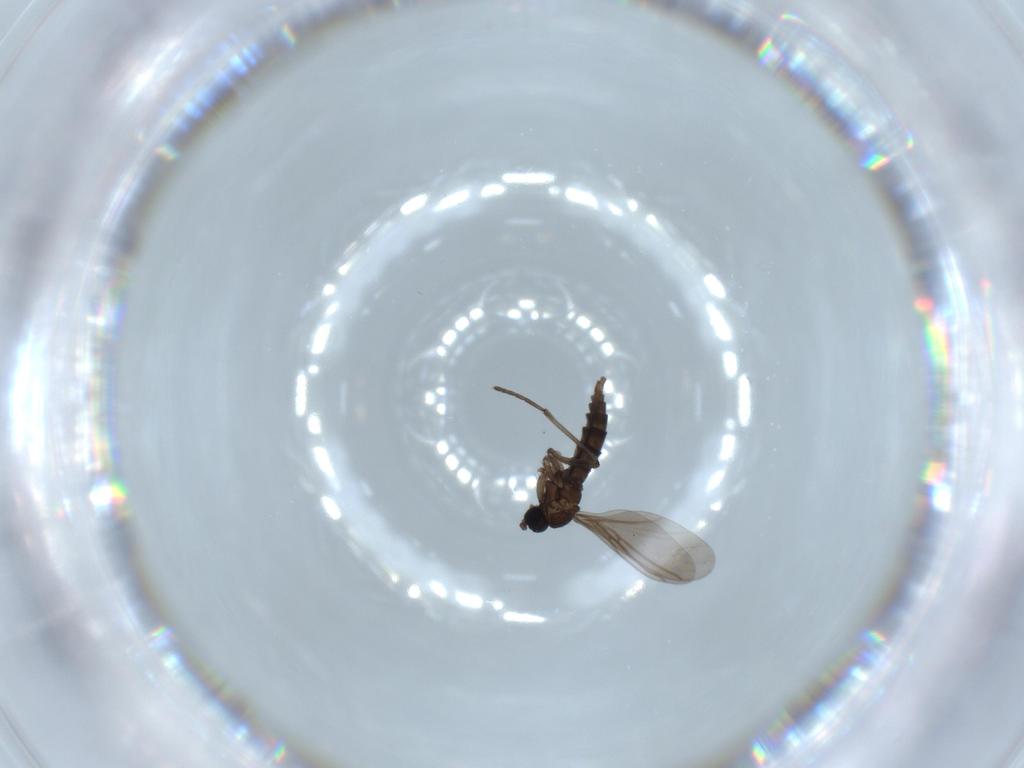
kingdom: Animalia
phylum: Arthropoda
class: Insecta
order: Diptera
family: Sciaridae
